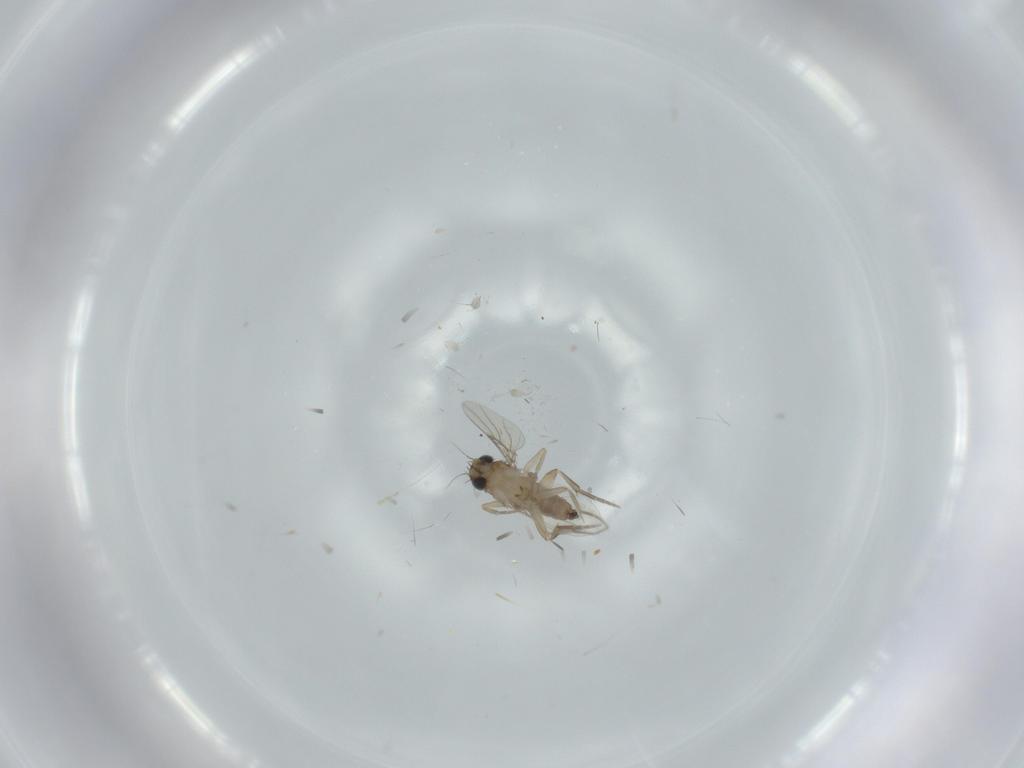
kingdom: Animalia
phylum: Arthropoda
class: Insecta
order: Diptera
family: Phoridae
